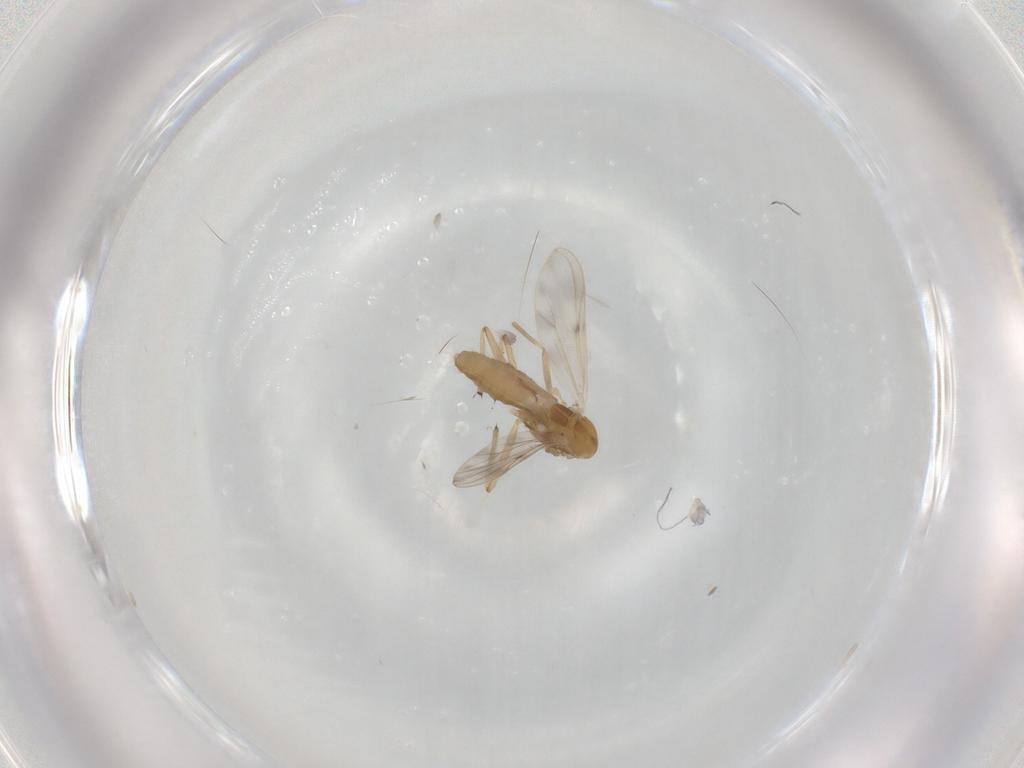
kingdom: Animalia
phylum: Arthropoda
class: Insecta
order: Diptera
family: Chironomidae
